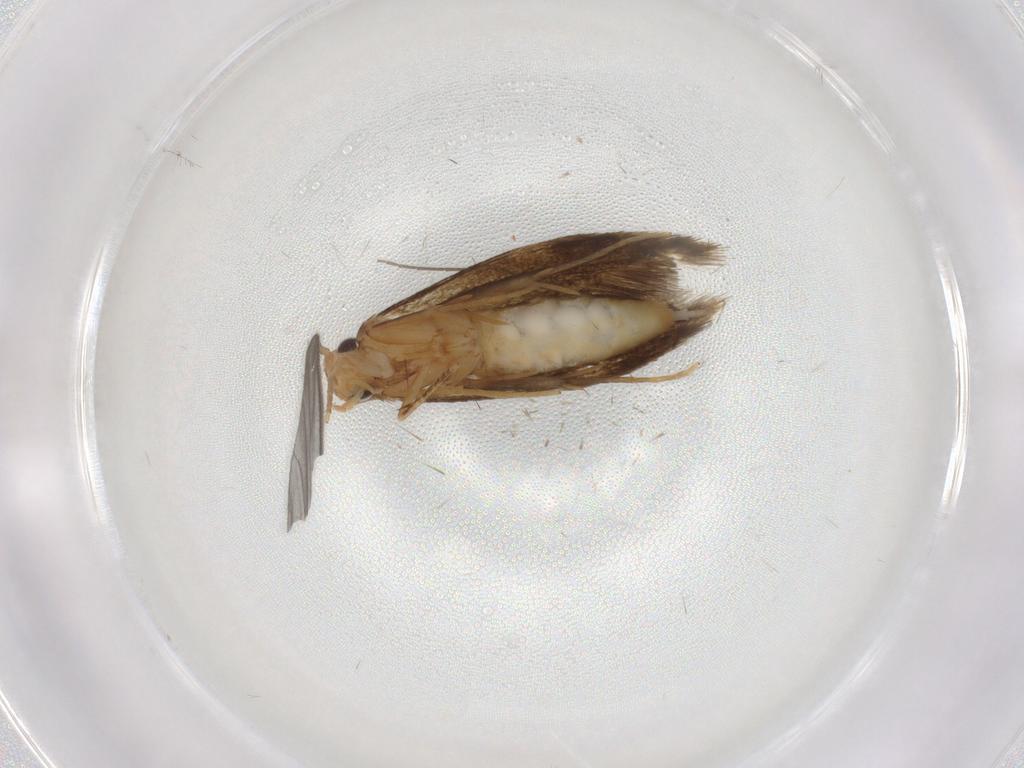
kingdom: Animalia
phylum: Arthropoda
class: Insecta
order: Lepidoptera
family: Tineidae
